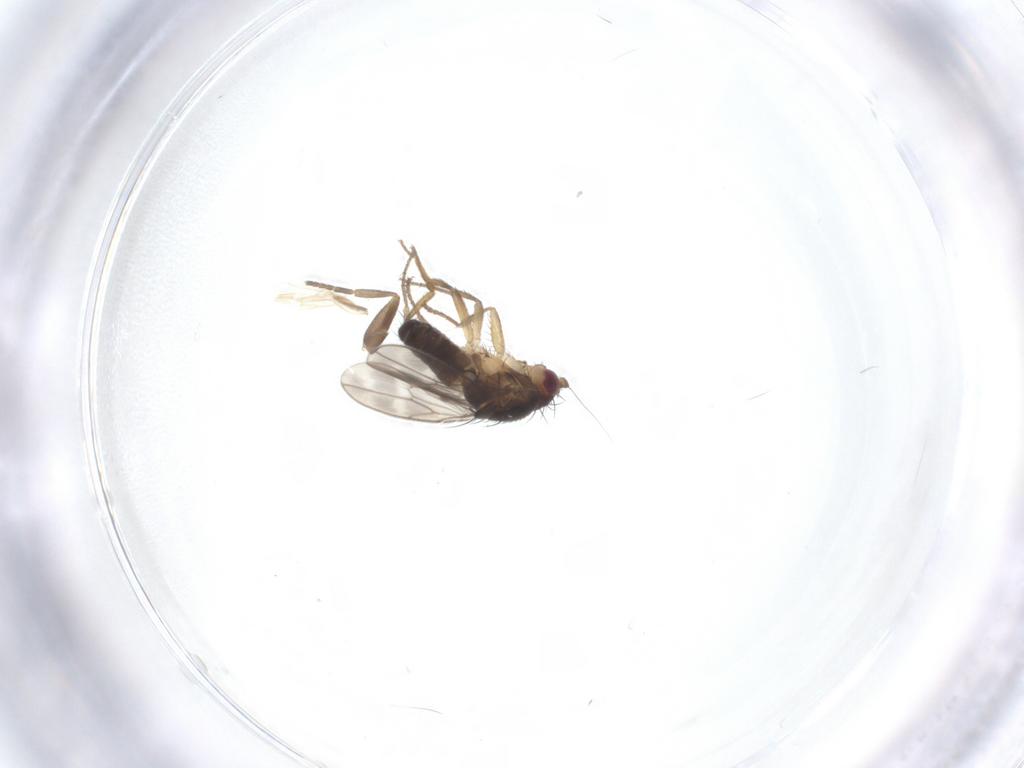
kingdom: Animalia
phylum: Arthropoda
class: Insecta
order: Diptera
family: Sphaeroceridae
